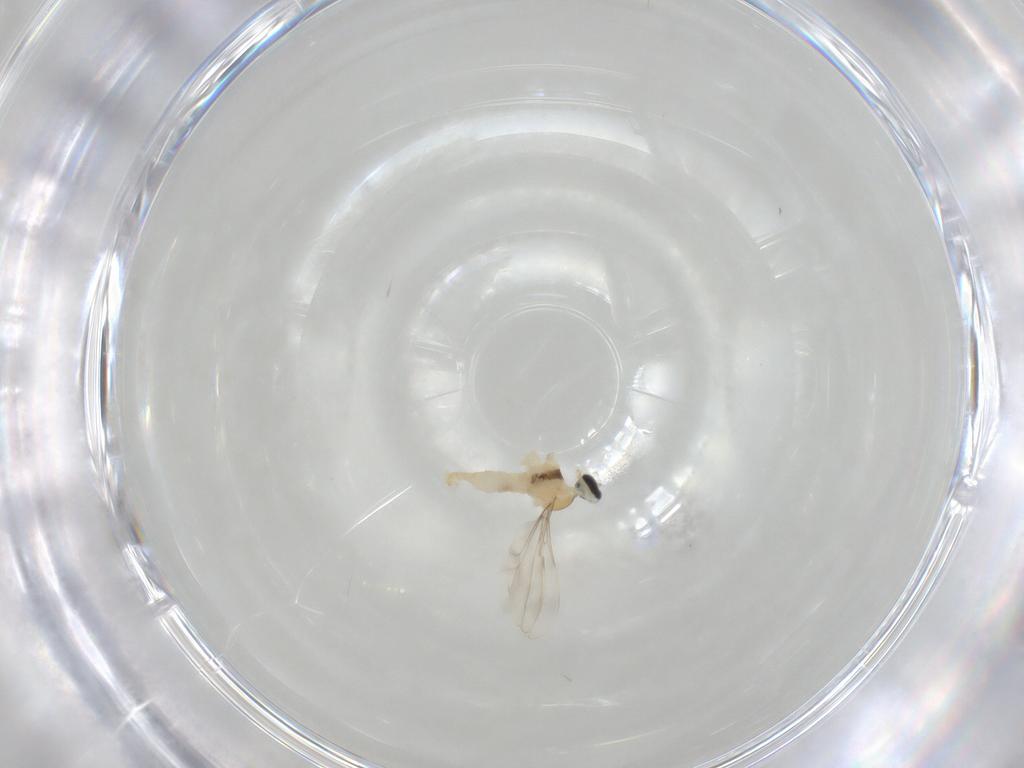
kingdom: Animalia
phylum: Arthropoda
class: Insecta
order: Diptera
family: Cecidomyiidae
